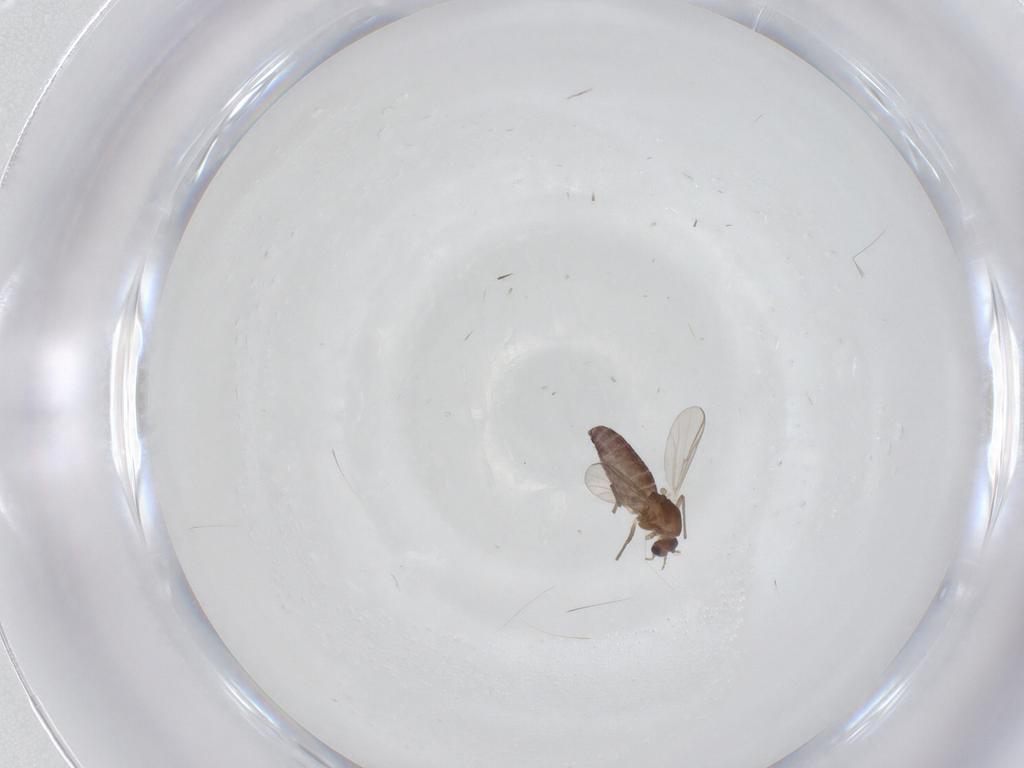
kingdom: Animalia
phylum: Arthropoda
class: Insecta
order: Diptera
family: Chironomidae
